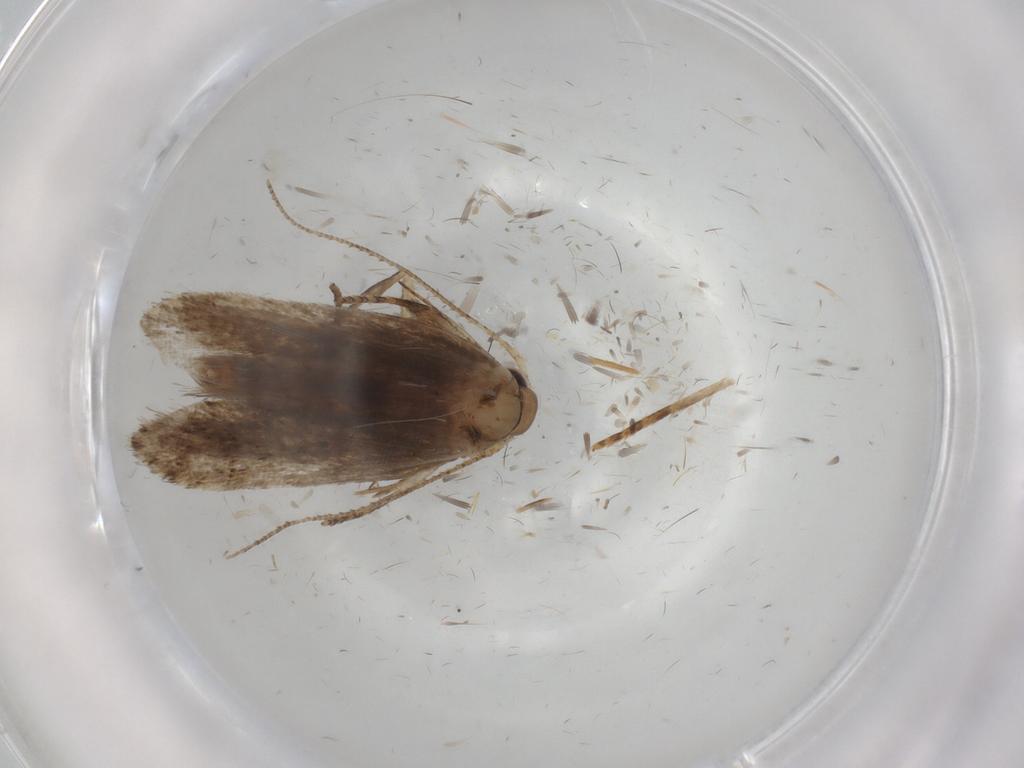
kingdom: Animalia
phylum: Arthropoda
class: Insecta
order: Lepidoptera
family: Gelechiidae
